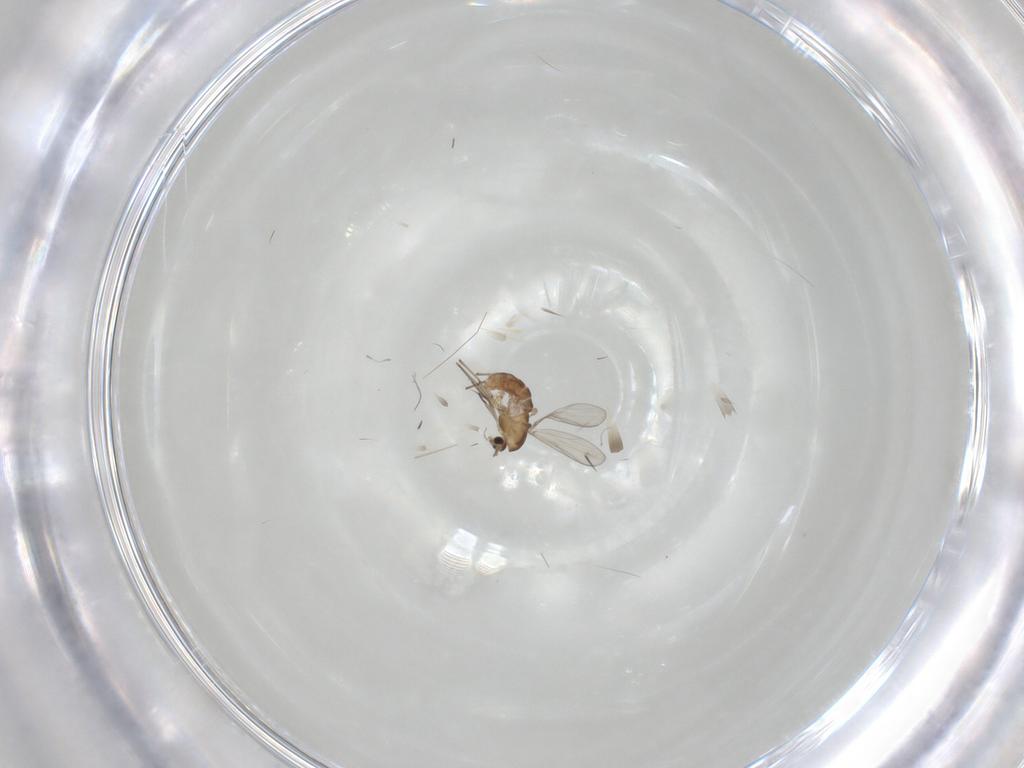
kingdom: Animalia
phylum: Arthropoda
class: Insecta
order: Diptera
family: Chironomidae
